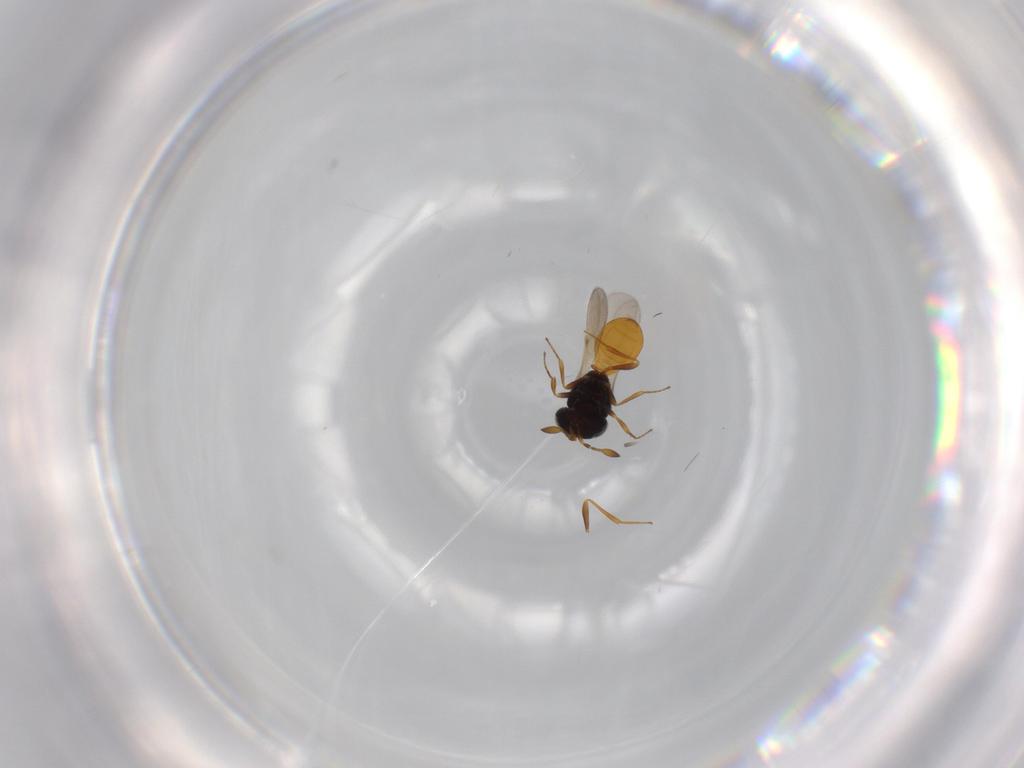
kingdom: Animalia
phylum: Arthropoda
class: Insecta
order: Hymenoptera
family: Scelionidae
